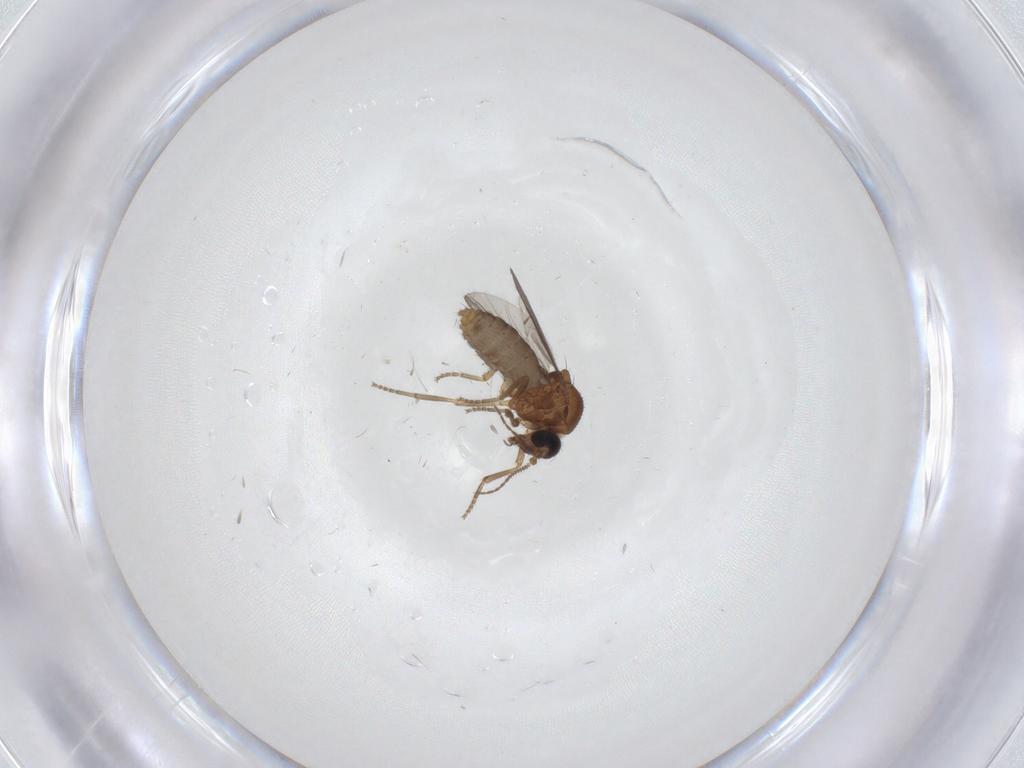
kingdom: Animalia
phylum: Arthropoda
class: Insecta
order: Diptera
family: Ceratopogonidae
